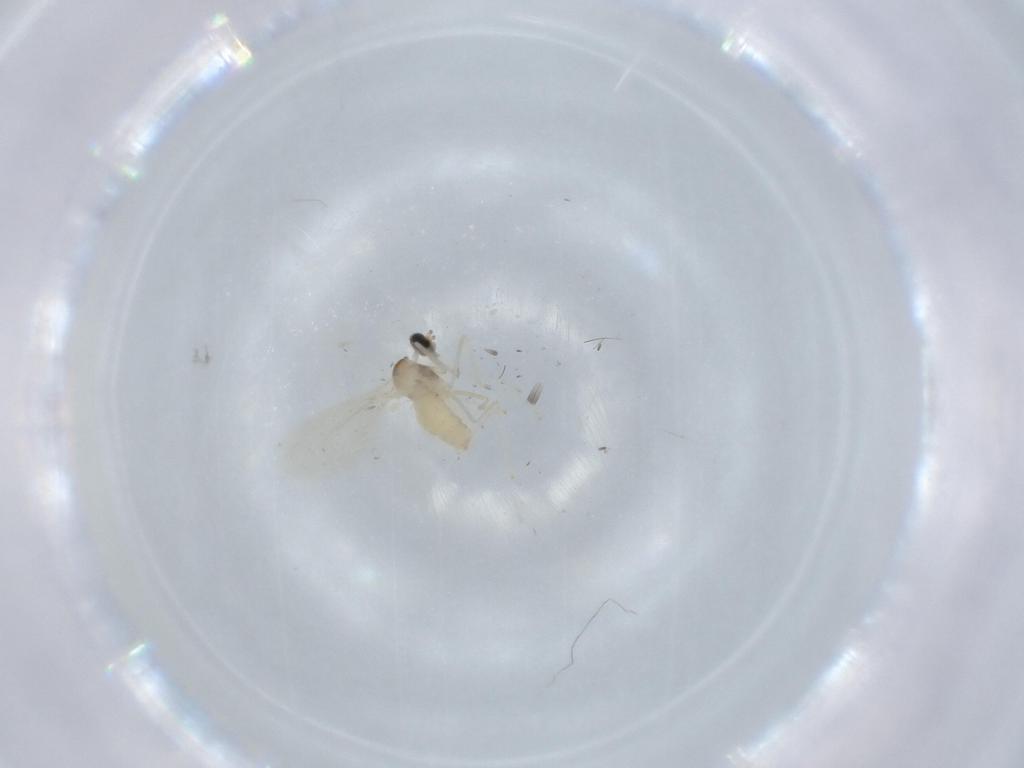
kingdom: Animalia
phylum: Arthropoda
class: Insecta
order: Diptera
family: Cecidomyiidae
